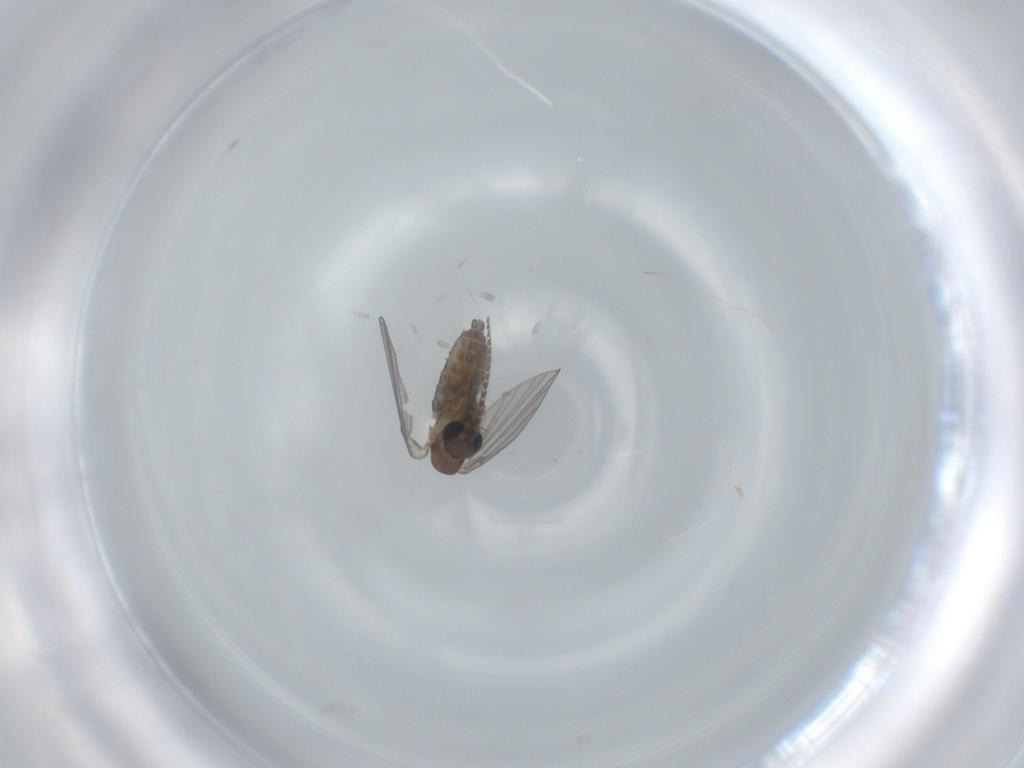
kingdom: Animalia
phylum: Arthropoda
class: Insecta
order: Diptera
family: Psychodidae
